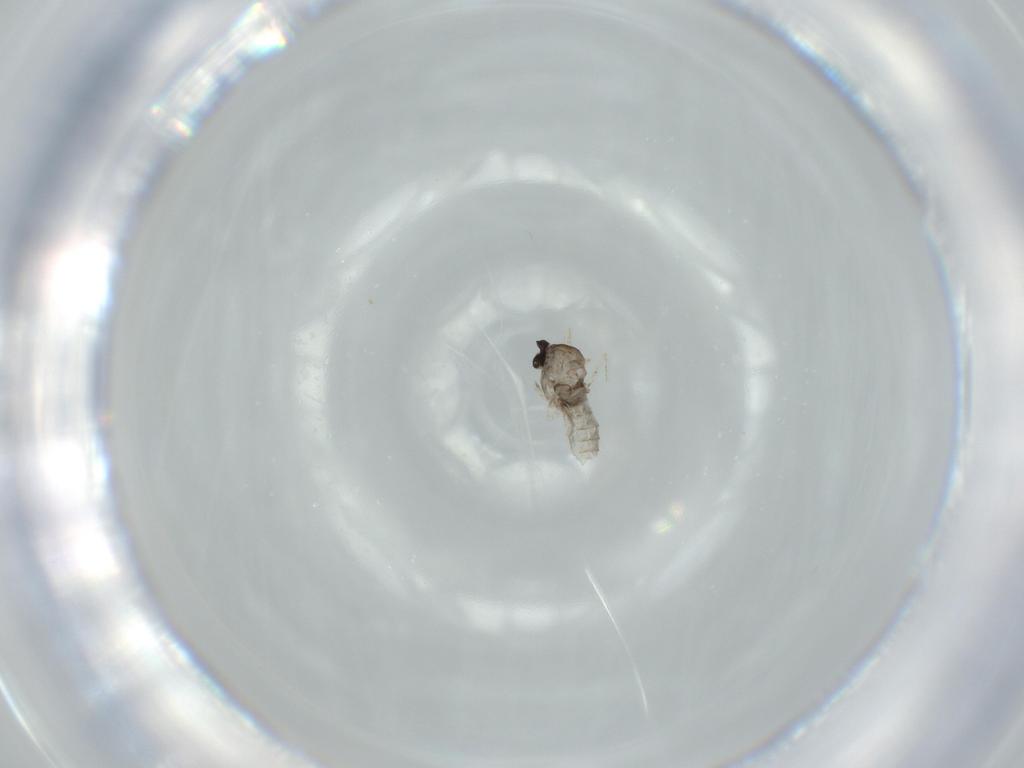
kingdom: Animalia
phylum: Arthropoda
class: Insecta
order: Diptera
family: Cecidomyiidae
